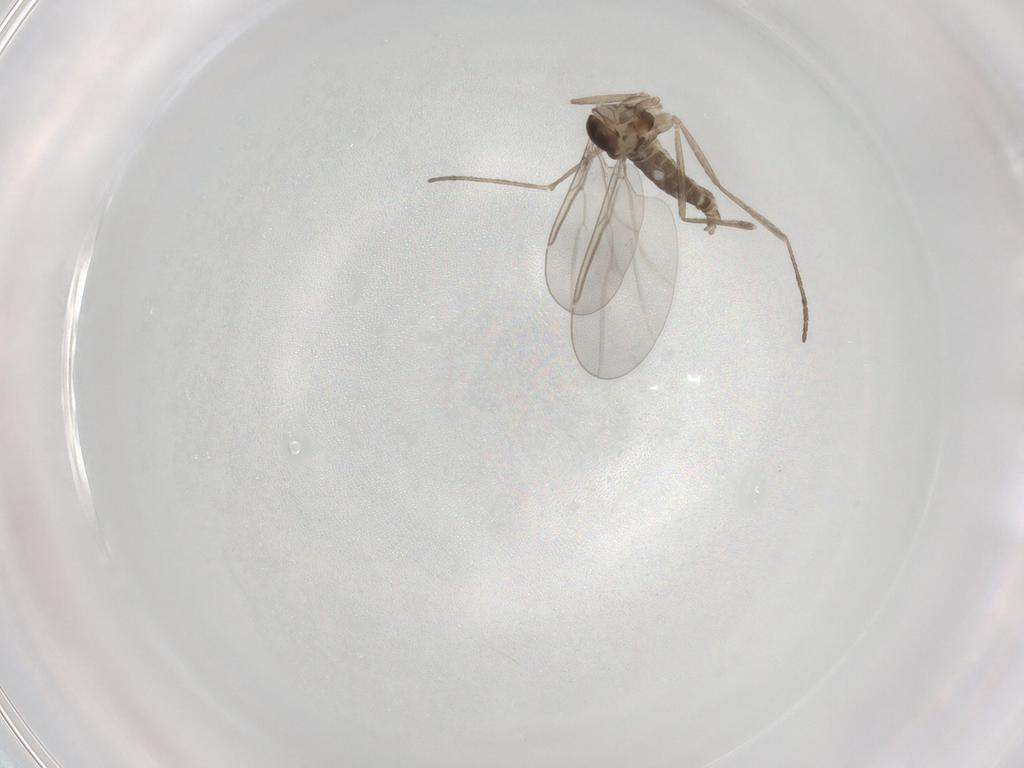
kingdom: Animalia
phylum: Arthropoda
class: Insecta
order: Diptera
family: Cecidomyiidae
